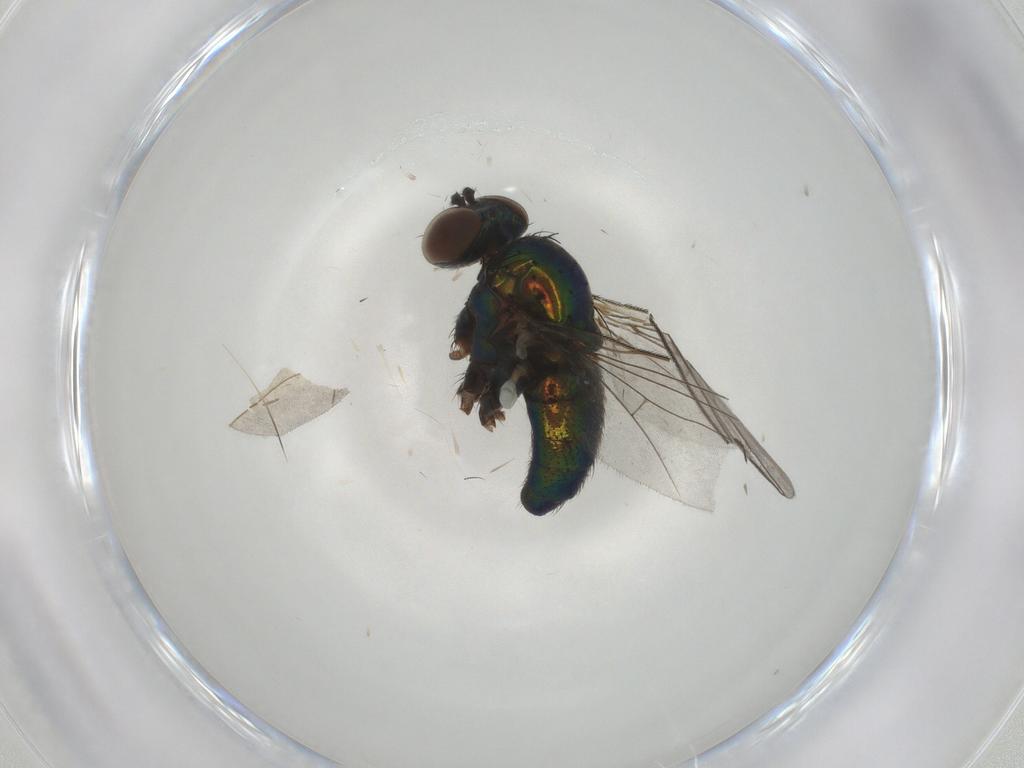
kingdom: Animalia
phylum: Arthropoda
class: Insecta
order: Diptera
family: Dolichopodidae
